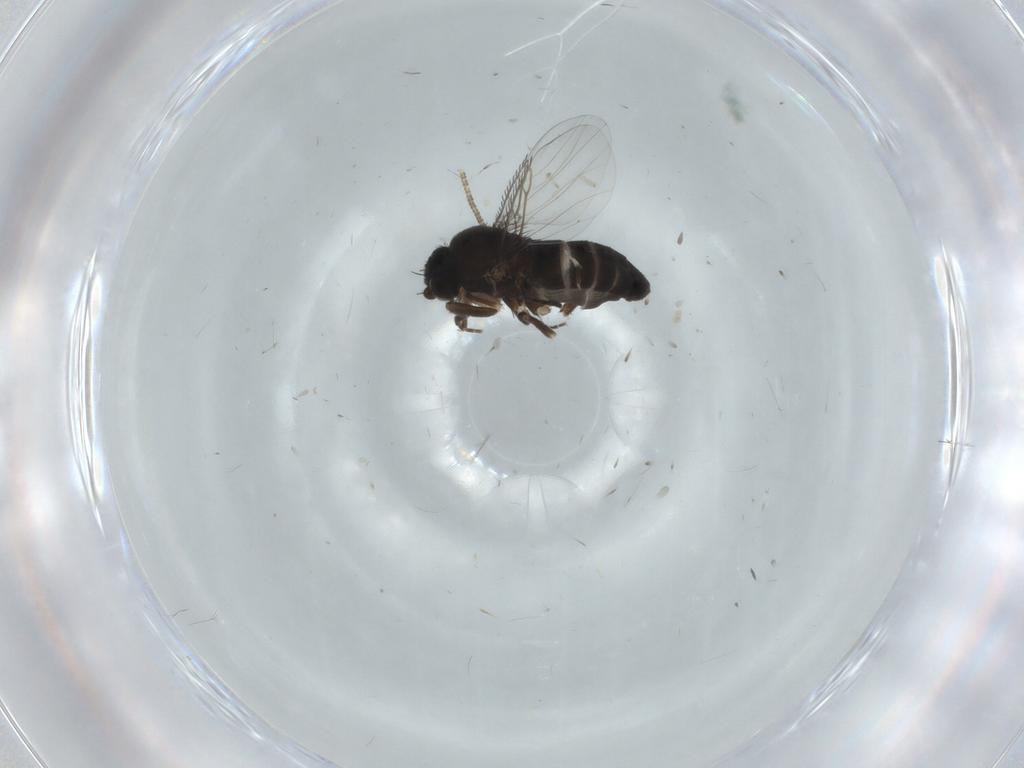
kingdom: Animalia
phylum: Arthropoda
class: Insecta
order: Diptera
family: Phoridae
